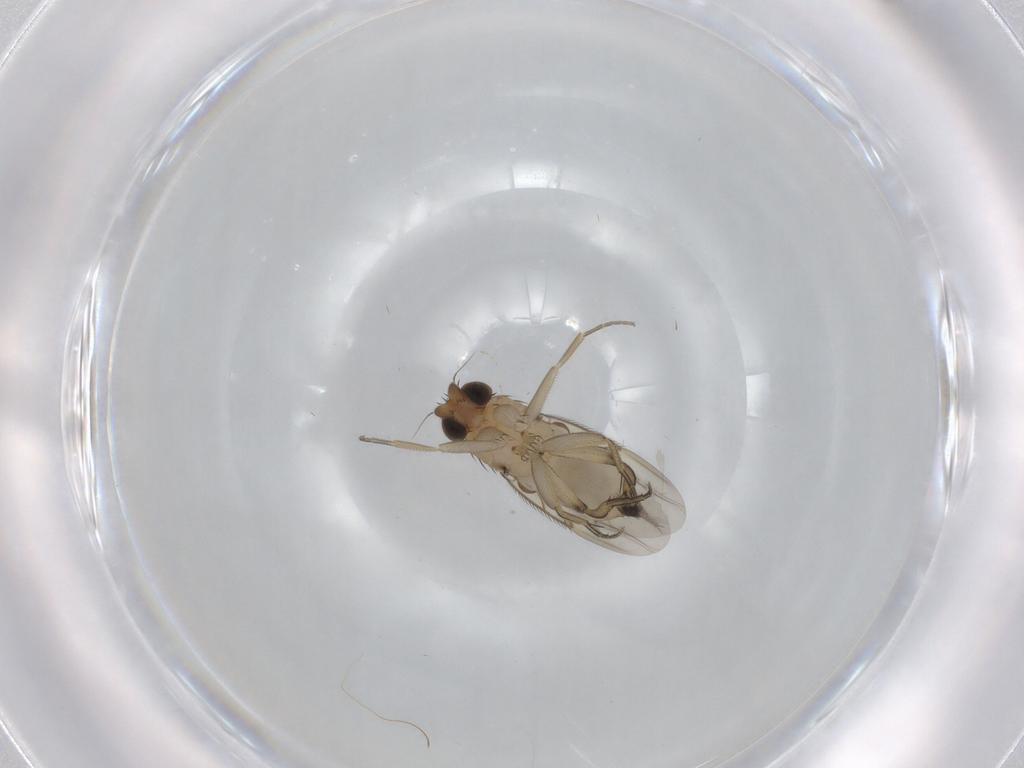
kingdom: Animalia
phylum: Arthropoda
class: Insecta
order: Diptera
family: Phoridae
